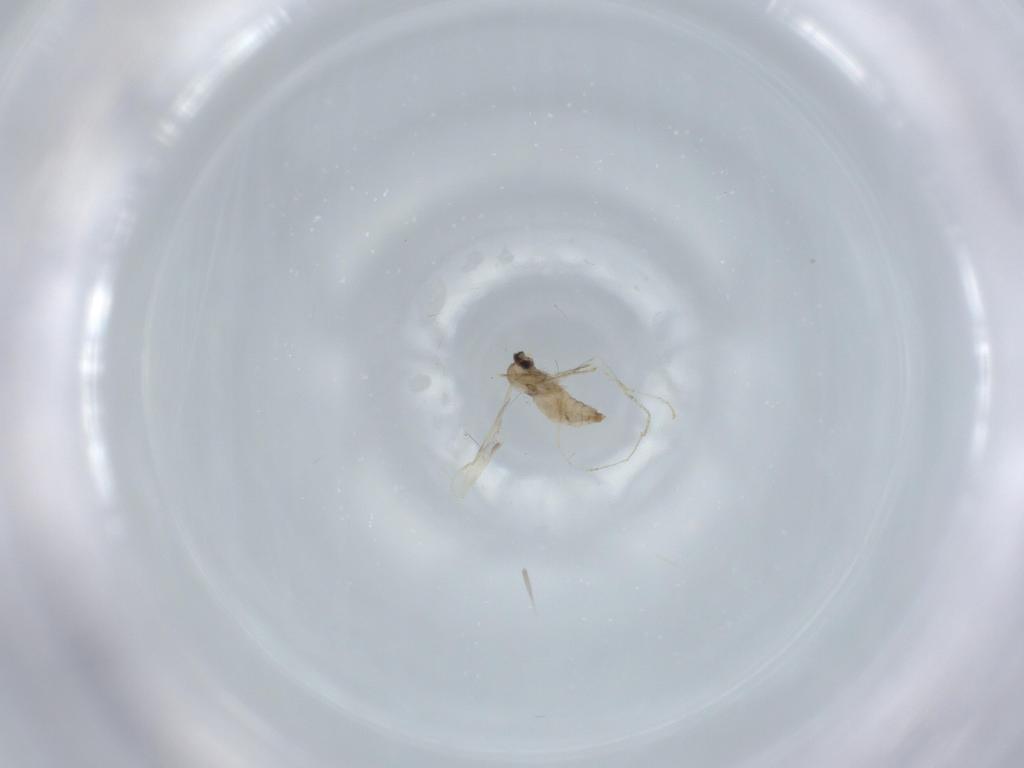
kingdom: Animalia
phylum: Arthropoda
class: Insecta
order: Diptera
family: Cecidomyiidae
